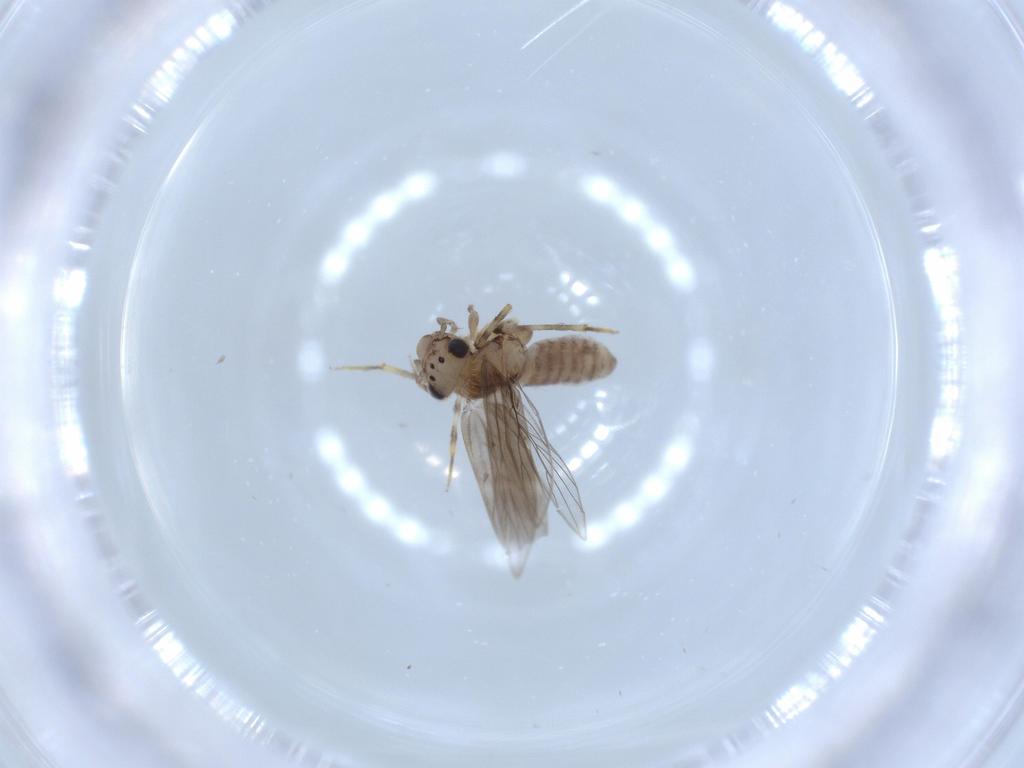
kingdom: Animalia
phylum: Arthropoda
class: Insecta
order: Psocodea
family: Lepidopsocidae
